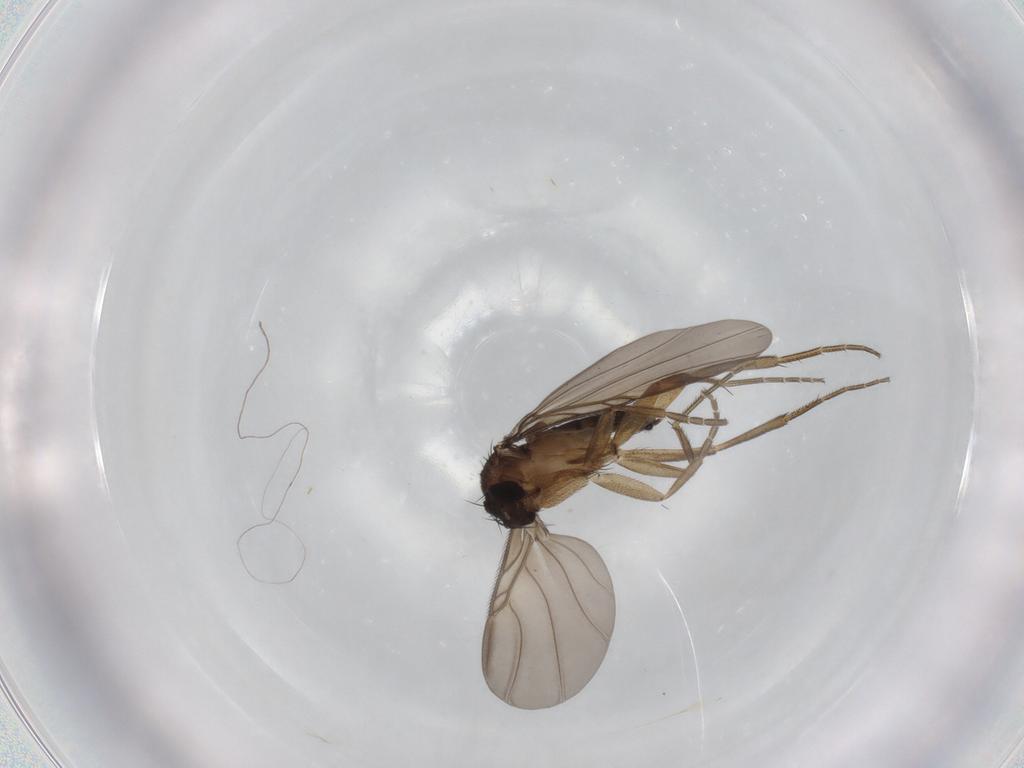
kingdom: Animalia
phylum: Arthropoda
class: Insecta
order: Diptera
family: Phoridae
